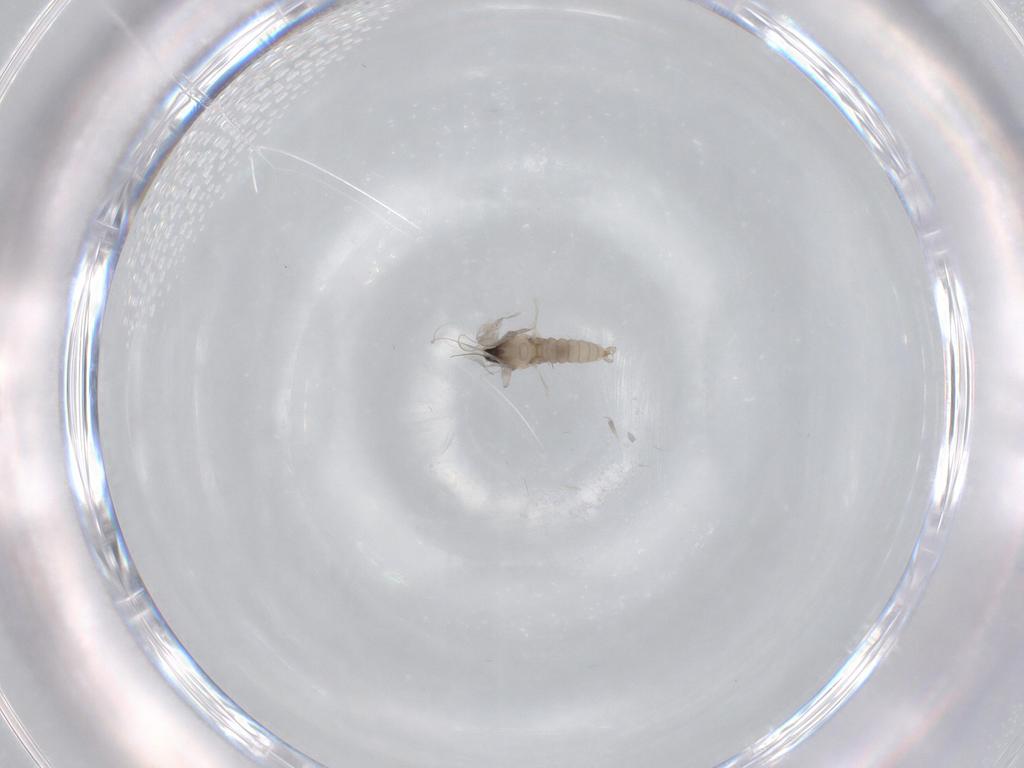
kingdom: Animalia
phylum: Arthropoda
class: Insecta
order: Diptera
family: Cecidomyiidae
